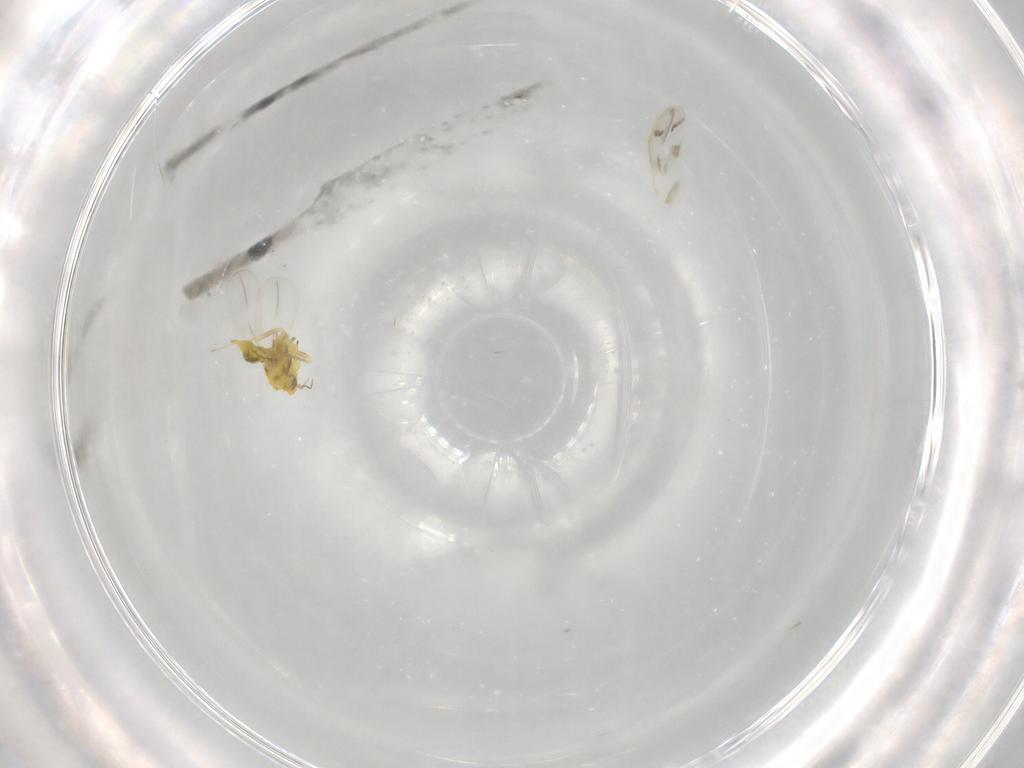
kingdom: Animalia
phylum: Arthropoda
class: Insecta
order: Hemiptera
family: Aleyrodidae
